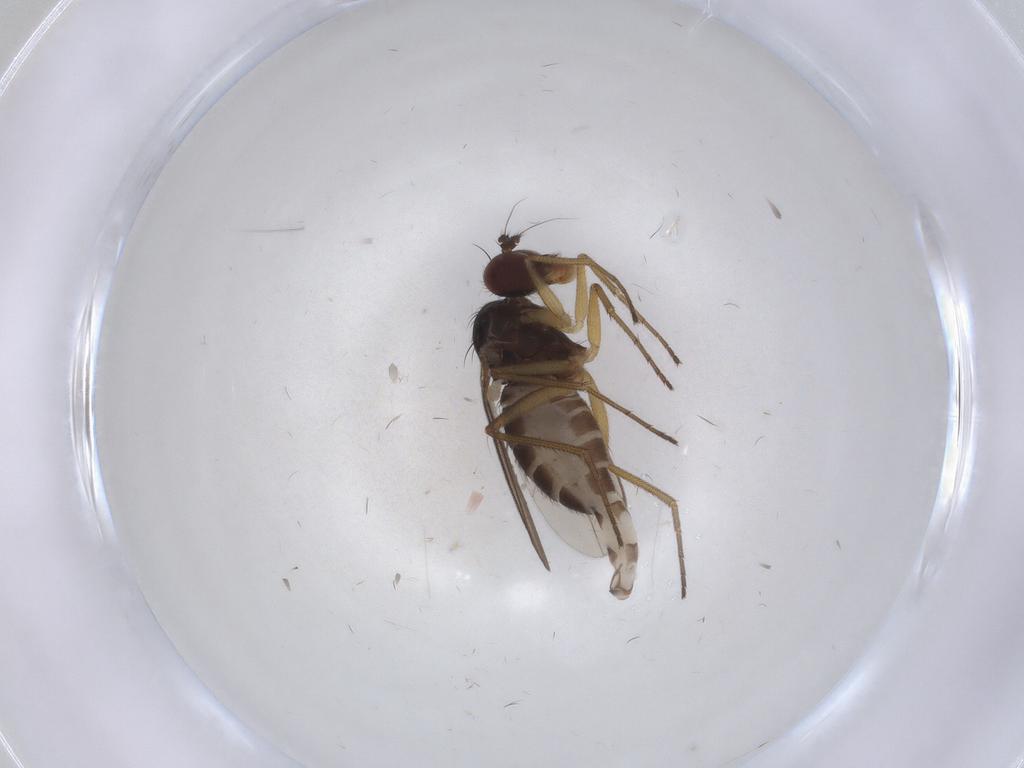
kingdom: Animalia
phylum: Arthropoda
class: Insecta
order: Diptera
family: Dolichopodidae
